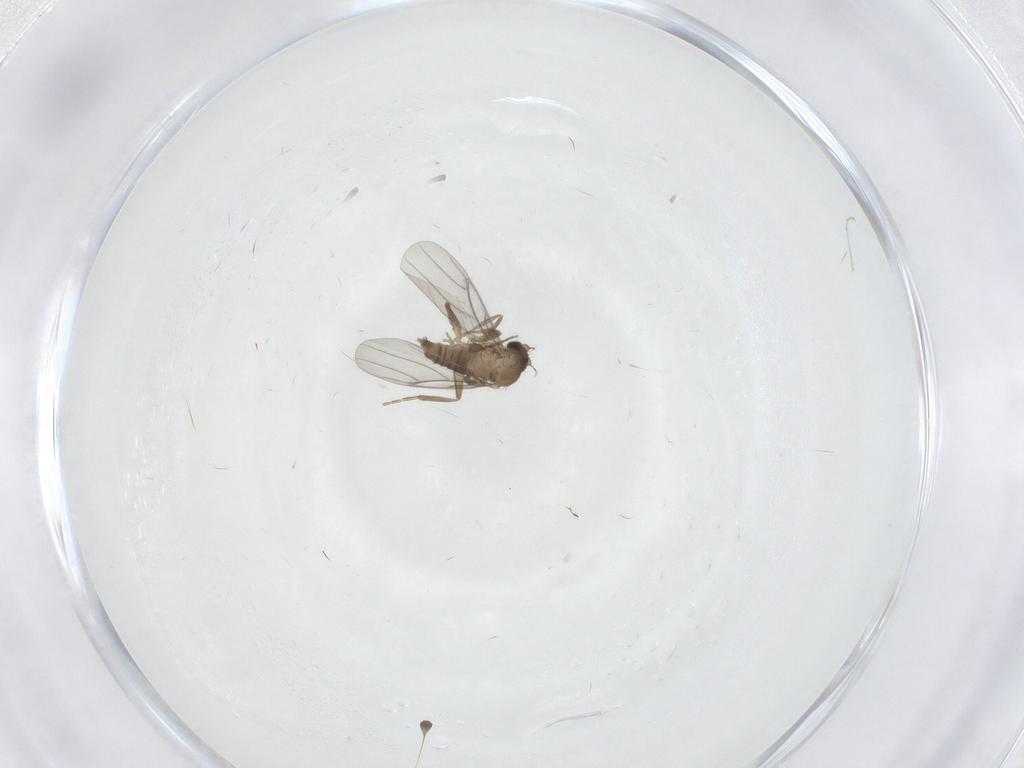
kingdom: Animalia
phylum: Arthropoda
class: Insecta
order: Diptera
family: Chironomidae
